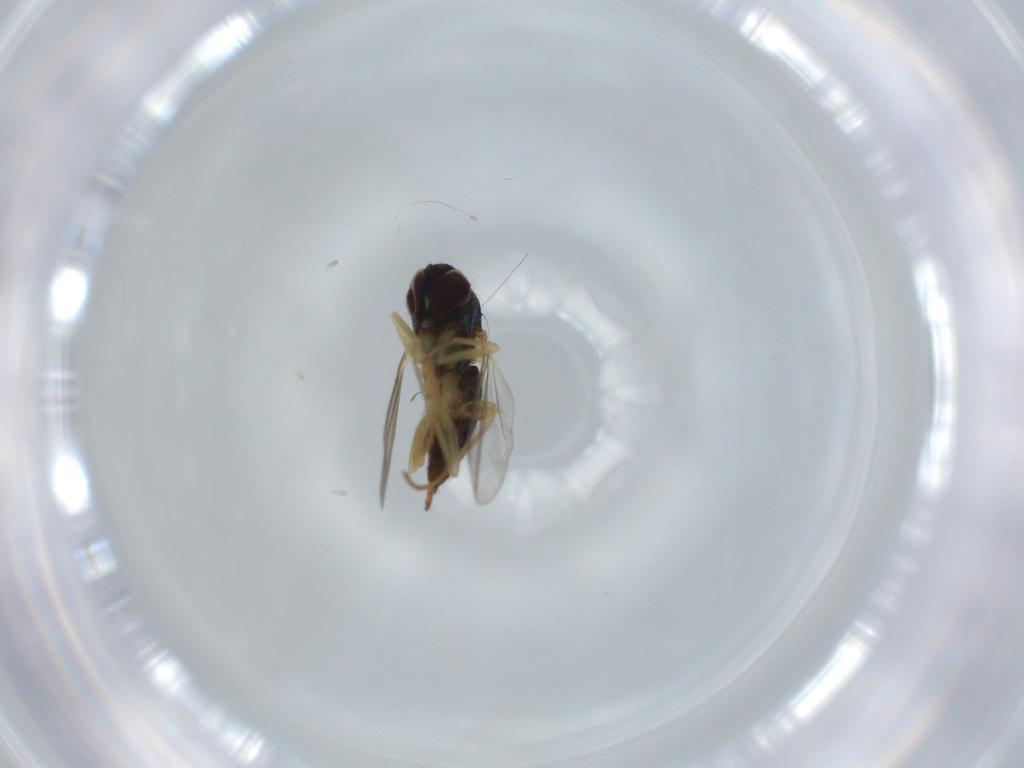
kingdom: Animalia
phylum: Arthropoda
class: Insecta
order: Diptera
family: Dolichopodidae
